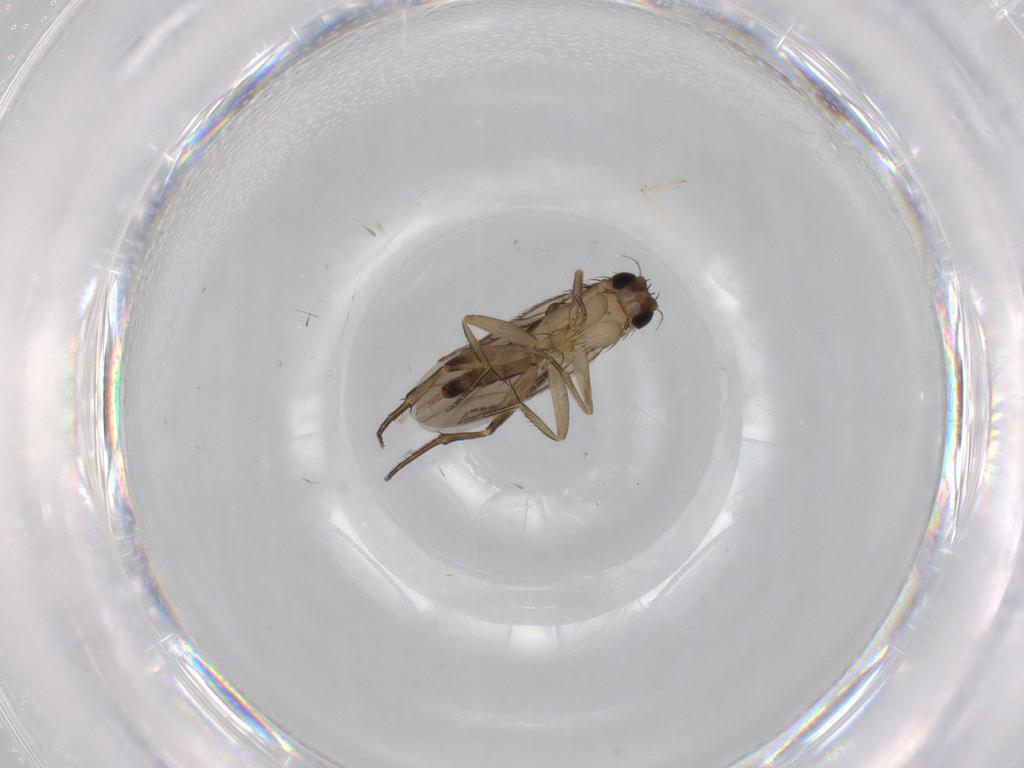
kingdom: Animalia
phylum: Arthropoda
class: Insecta
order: Diptera
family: Phoridae
